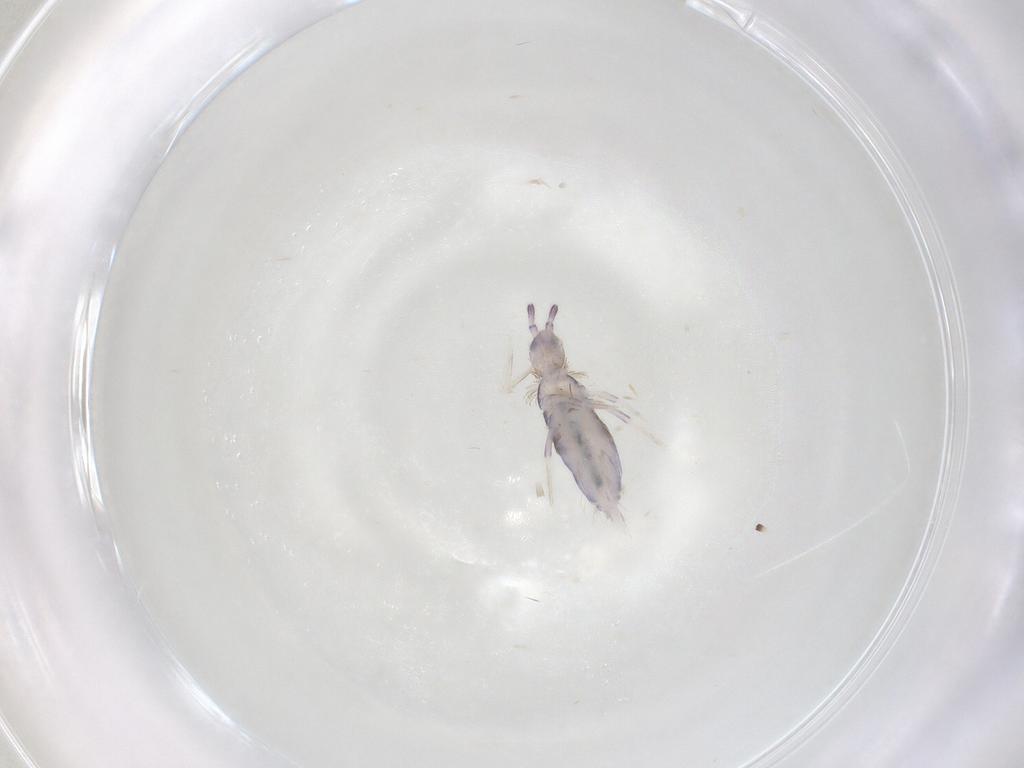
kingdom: Animalia
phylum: Arthropoda
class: Collembola
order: Poduromorpha
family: Hypogastruridae
